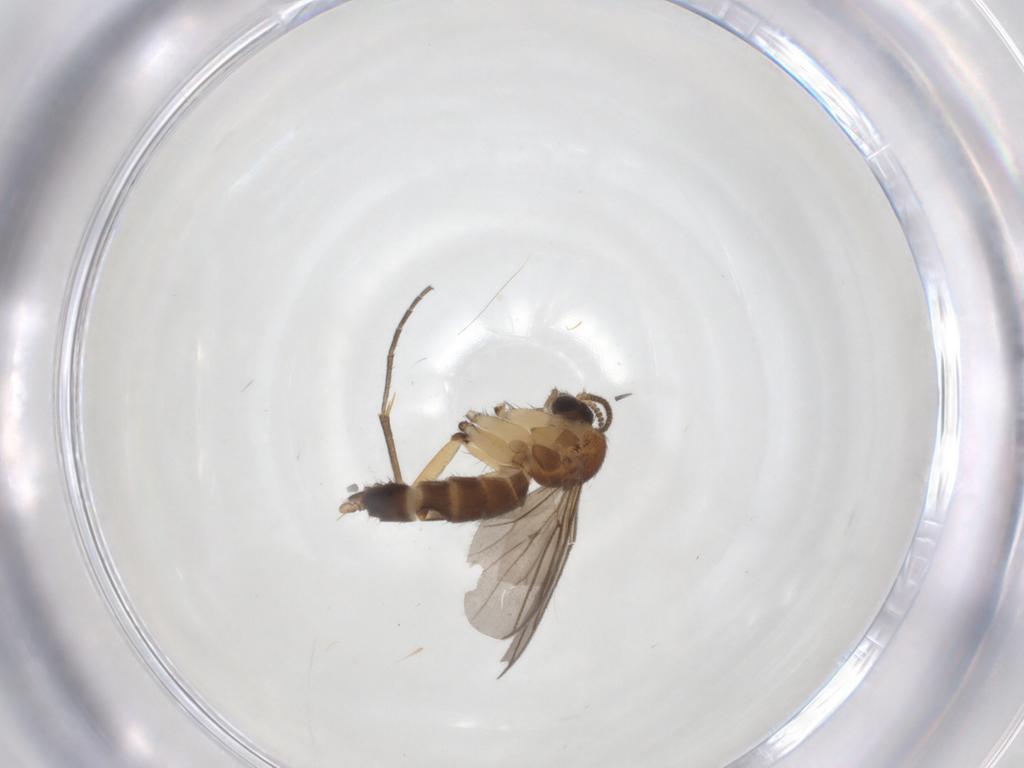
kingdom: Animalia
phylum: Arthropoda
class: Insecta
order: Diptera
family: Mycetophilidae
